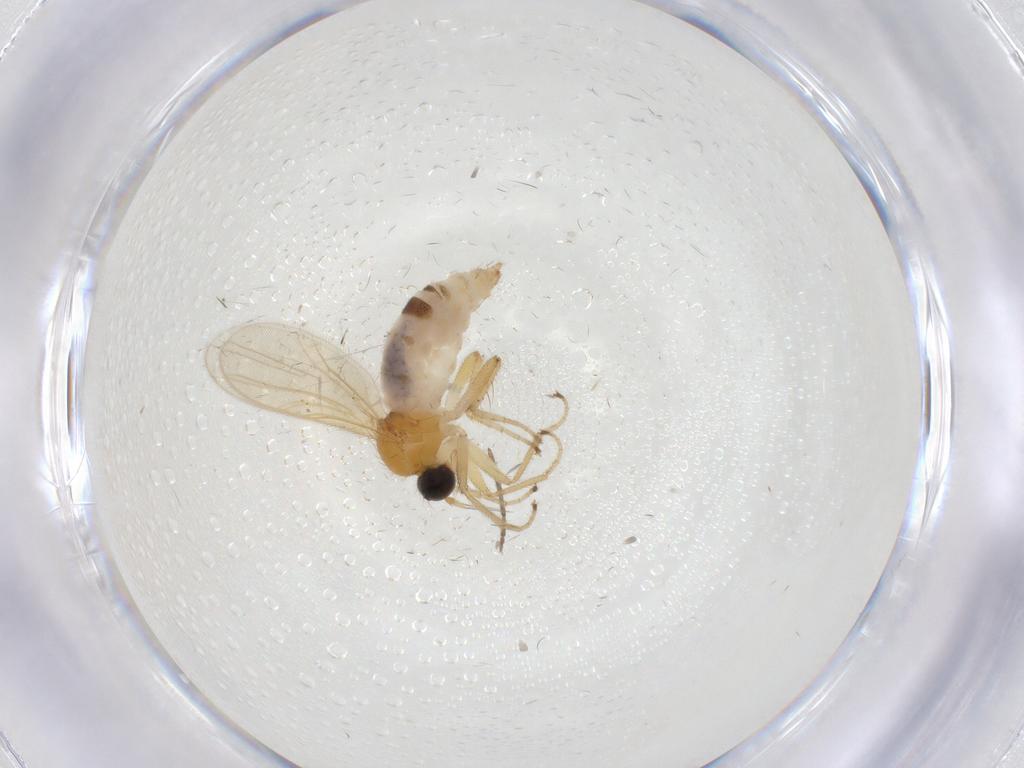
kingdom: Animalia
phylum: Arthropoda
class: Insecta
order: Diptera
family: Hybotidae
